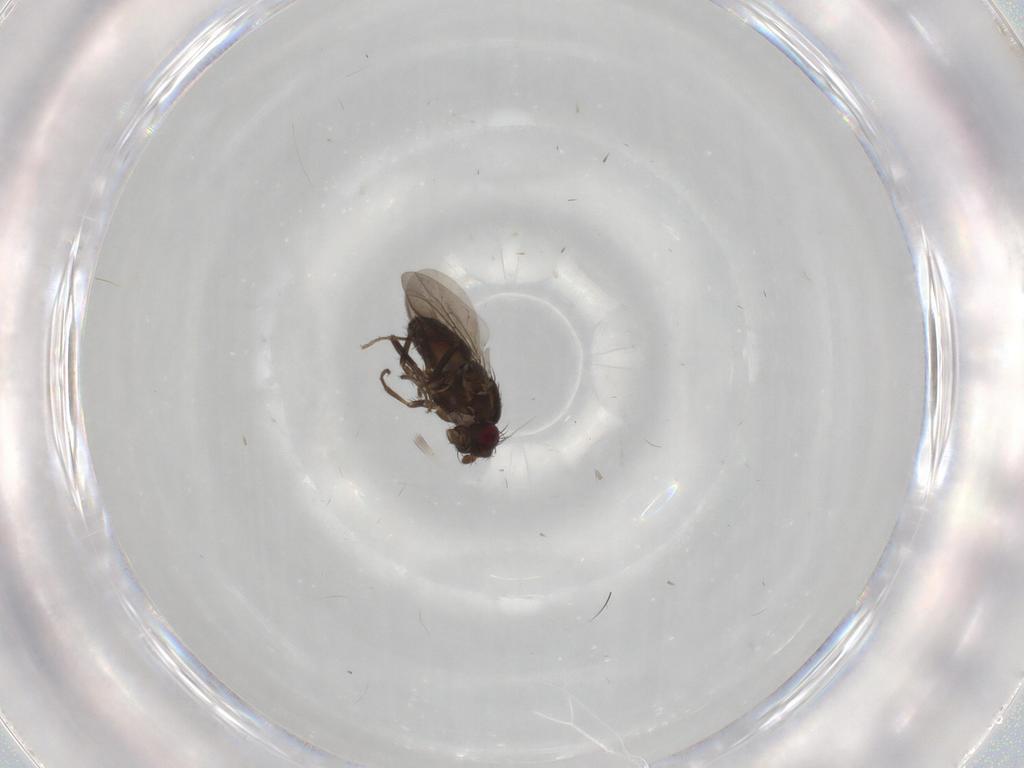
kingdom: Animalia
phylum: Arthropoda
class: Insecta
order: Diptera
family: Sphaeroceridae
